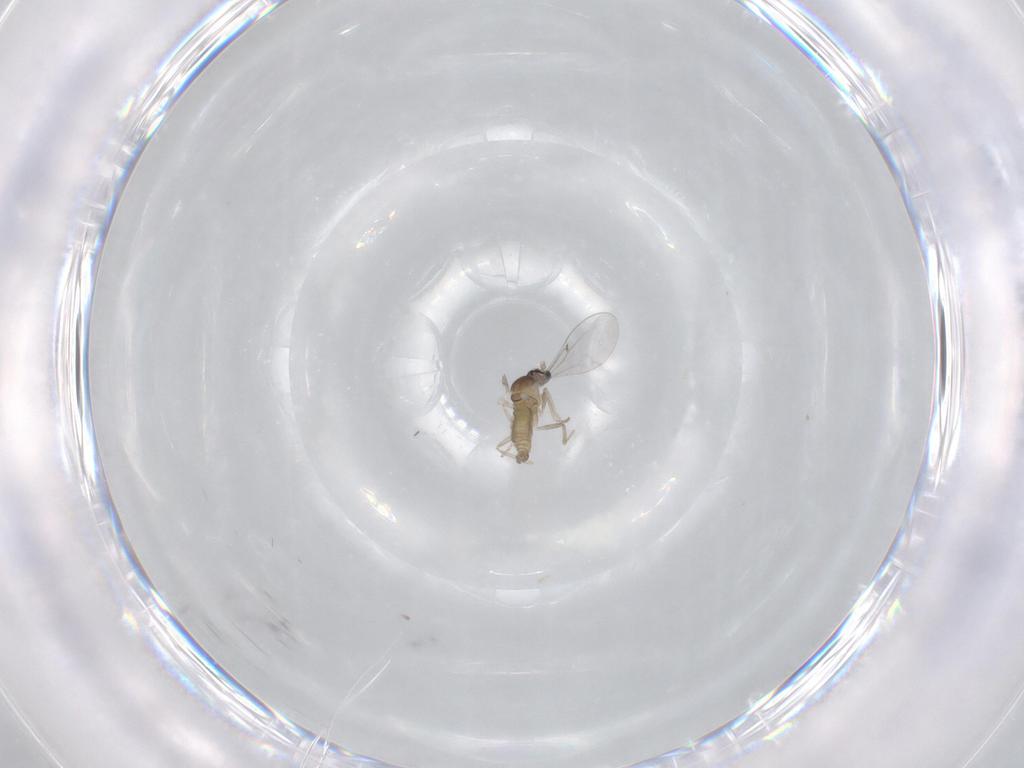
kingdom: Animalia
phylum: Arthropoda
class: Insecta
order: Diptera
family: Cecidomyiidae
